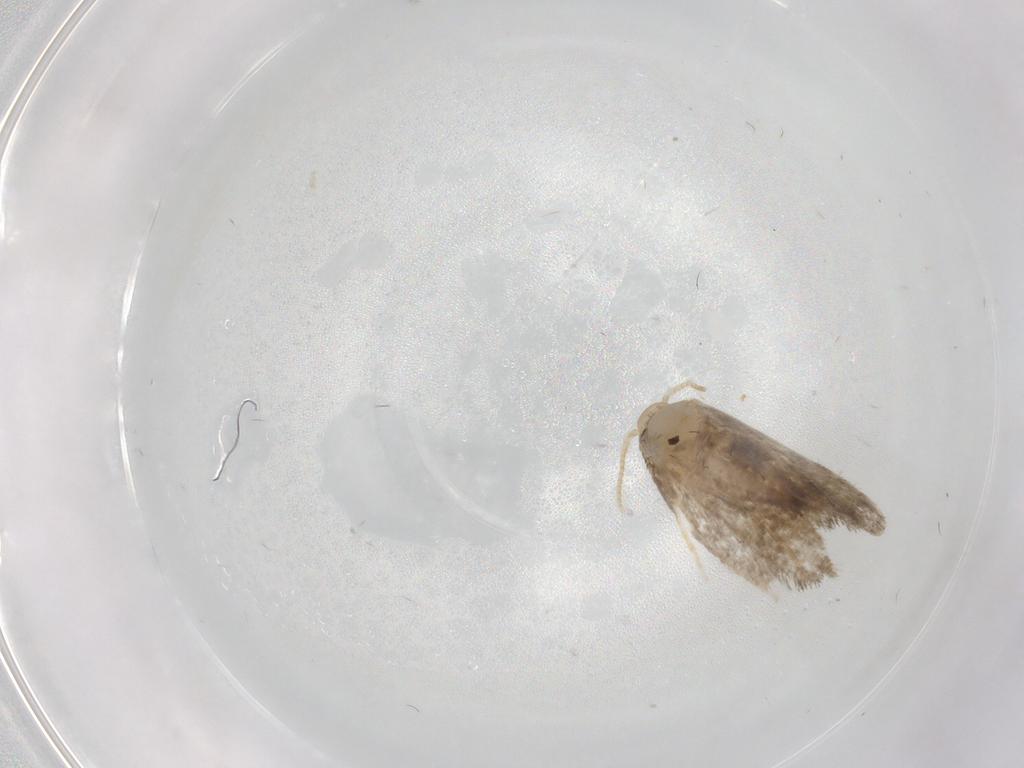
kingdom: Animalia
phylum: Arthropoda
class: Insecta
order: Lepidoptera
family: Psychidae
